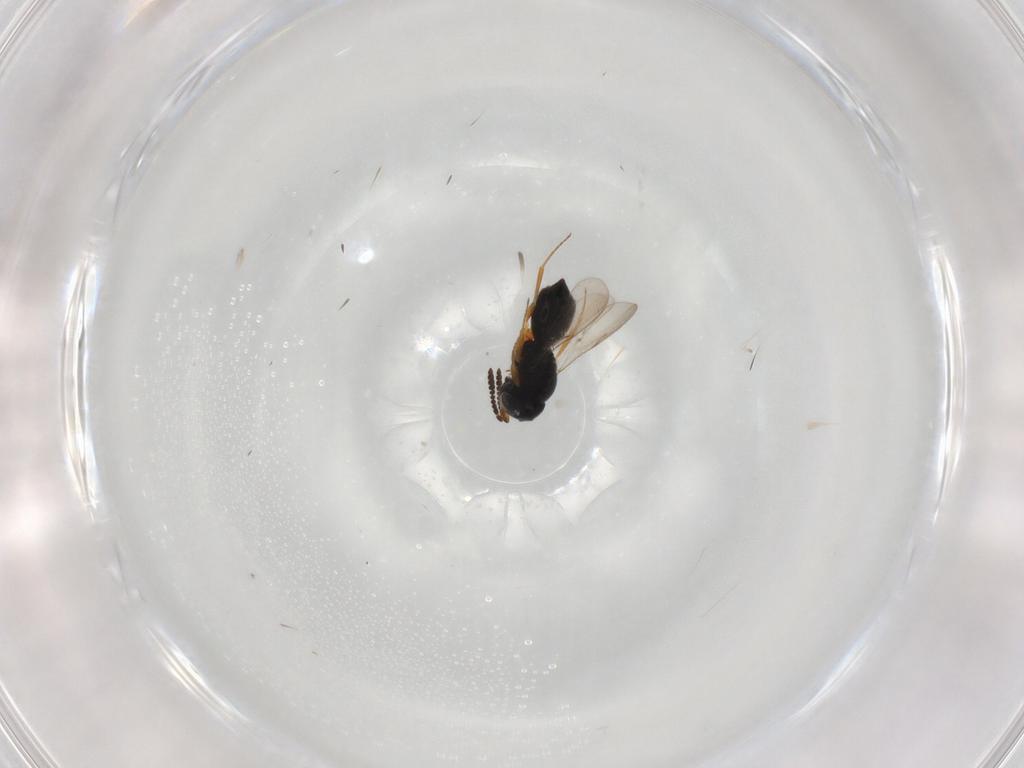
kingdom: Animalia
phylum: Arthropoda
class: Insecta
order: Hymenoptera
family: Scelionidae
